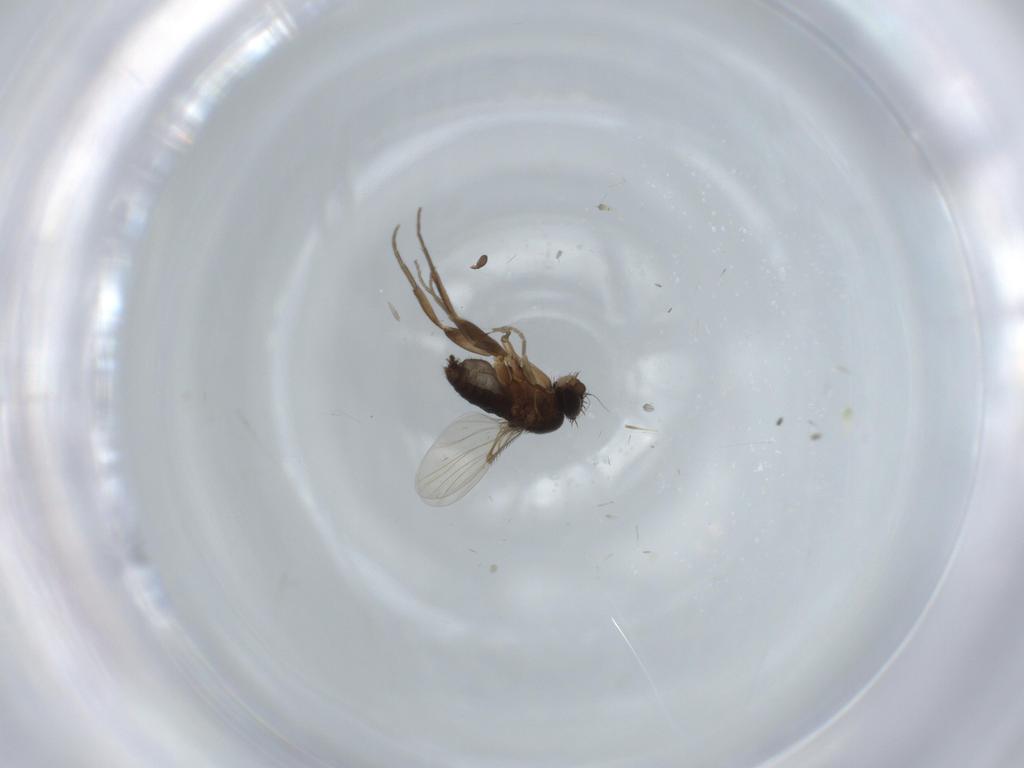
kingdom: Animalia
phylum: Arthropoda
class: Insecta
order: Diptera
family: Phoridae
